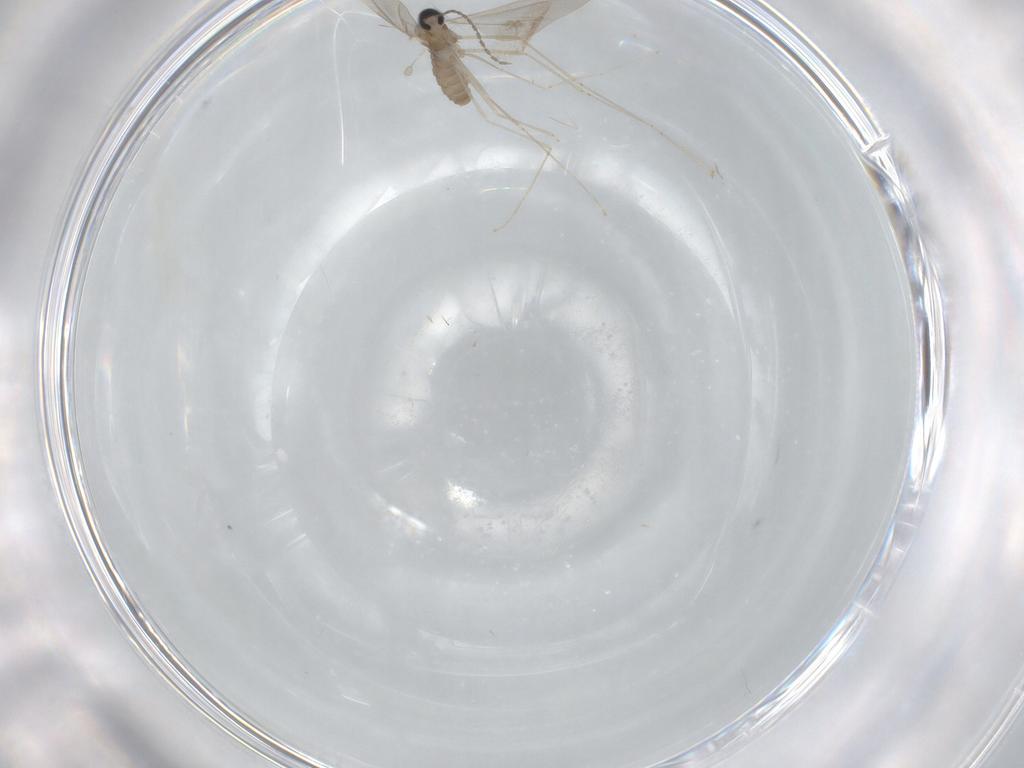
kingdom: Animalia
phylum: Arthropoda
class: Insecta
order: Diptera
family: Cecidomyiidae
